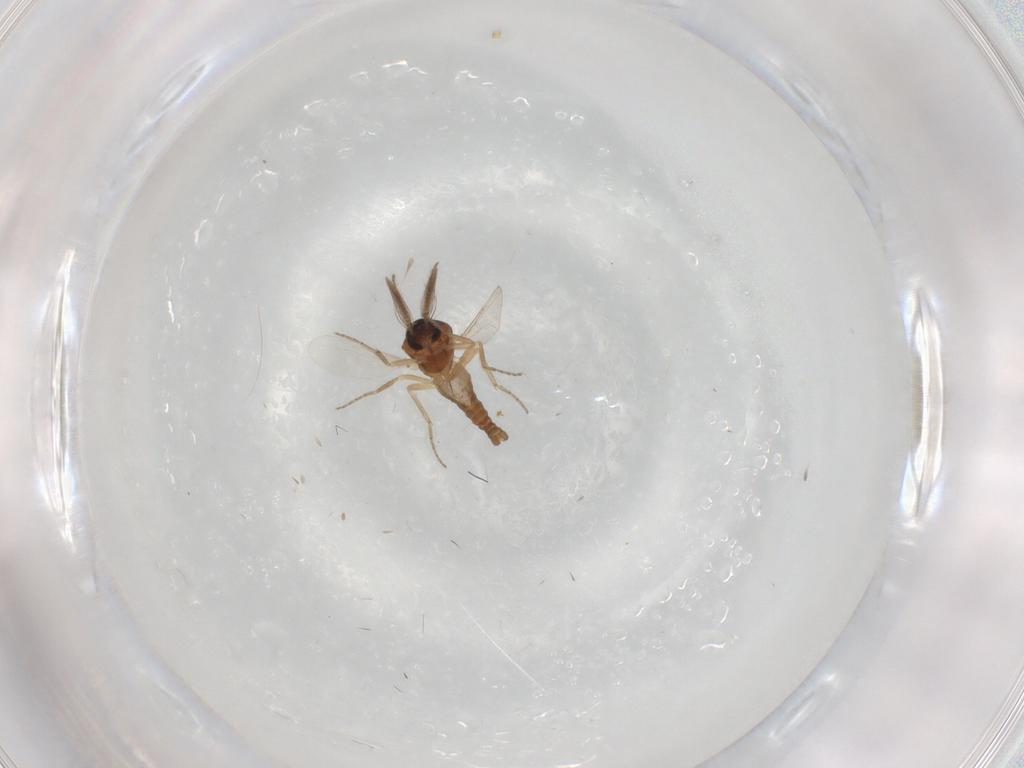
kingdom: Animalia
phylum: Arthropoda
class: Insecta
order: Diptera
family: Ceratopogonidae
